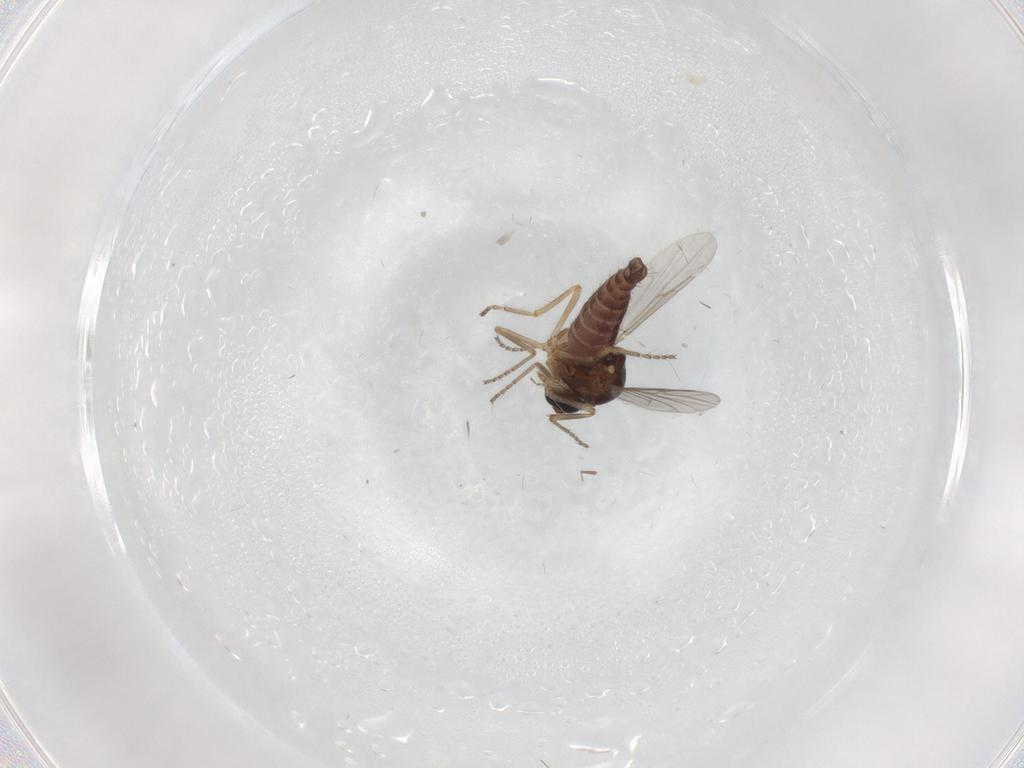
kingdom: Animalia
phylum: Arthropoda
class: Insecta
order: Diptera
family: Ceratopogonidae
